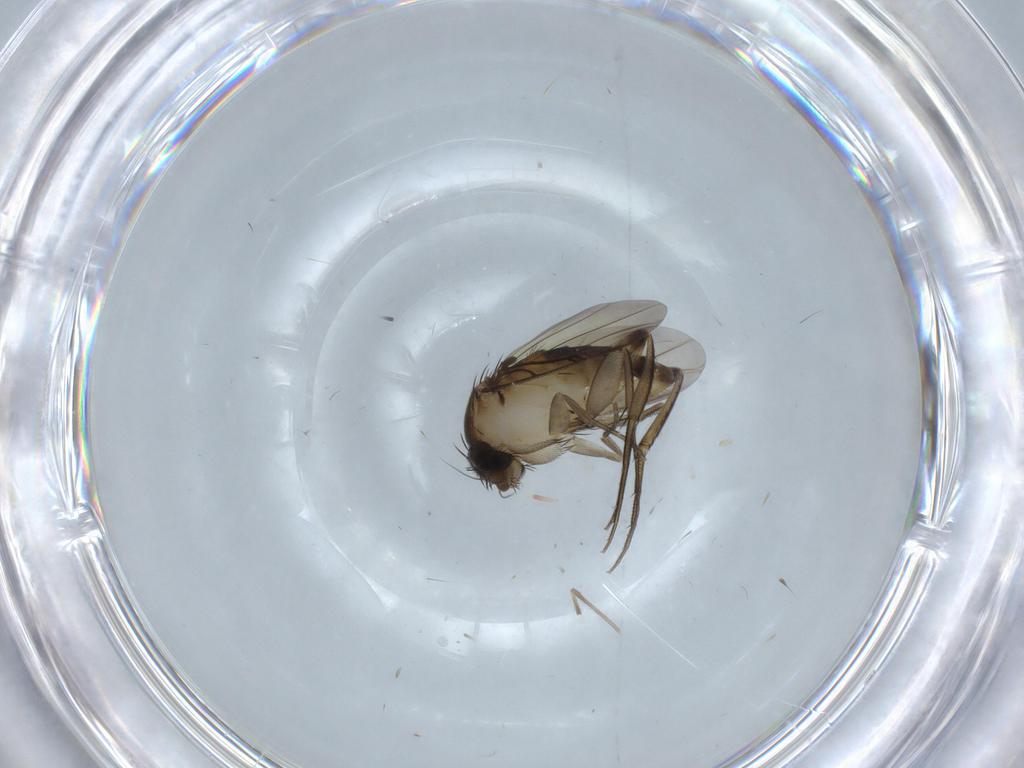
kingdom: Animalia
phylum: Arthropoda
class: Insecta
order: Diptera
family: Phoridae
